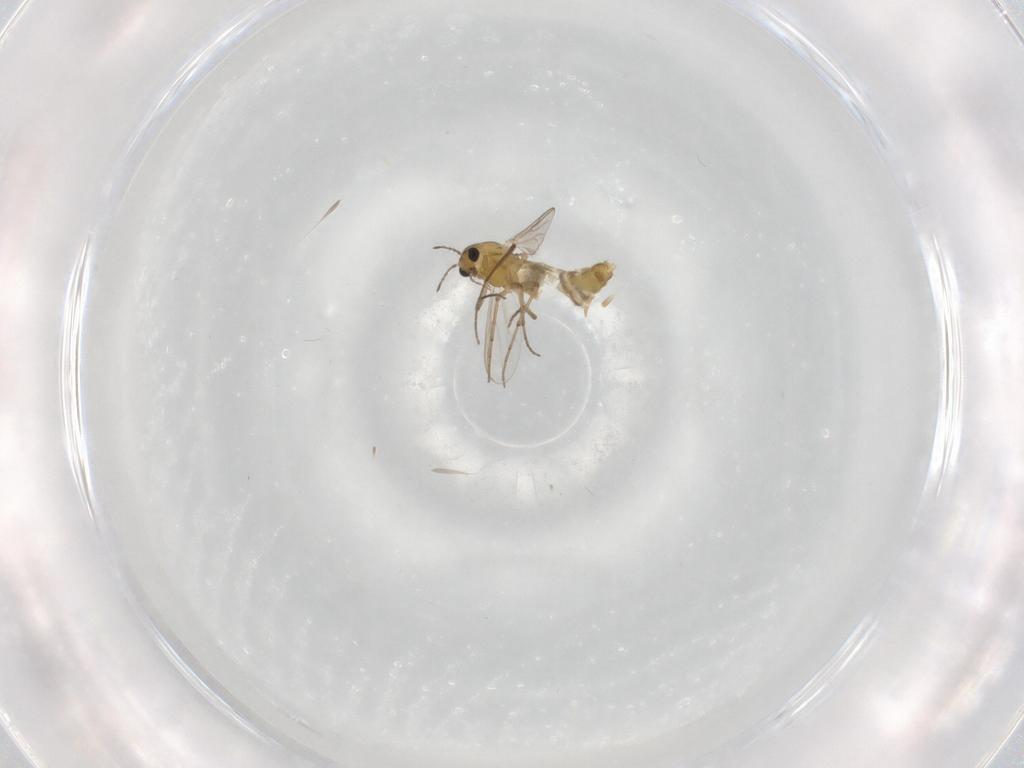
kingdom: Animalia
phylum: Arthropoda
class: Insecta
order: Diptera
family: Chironomidae
